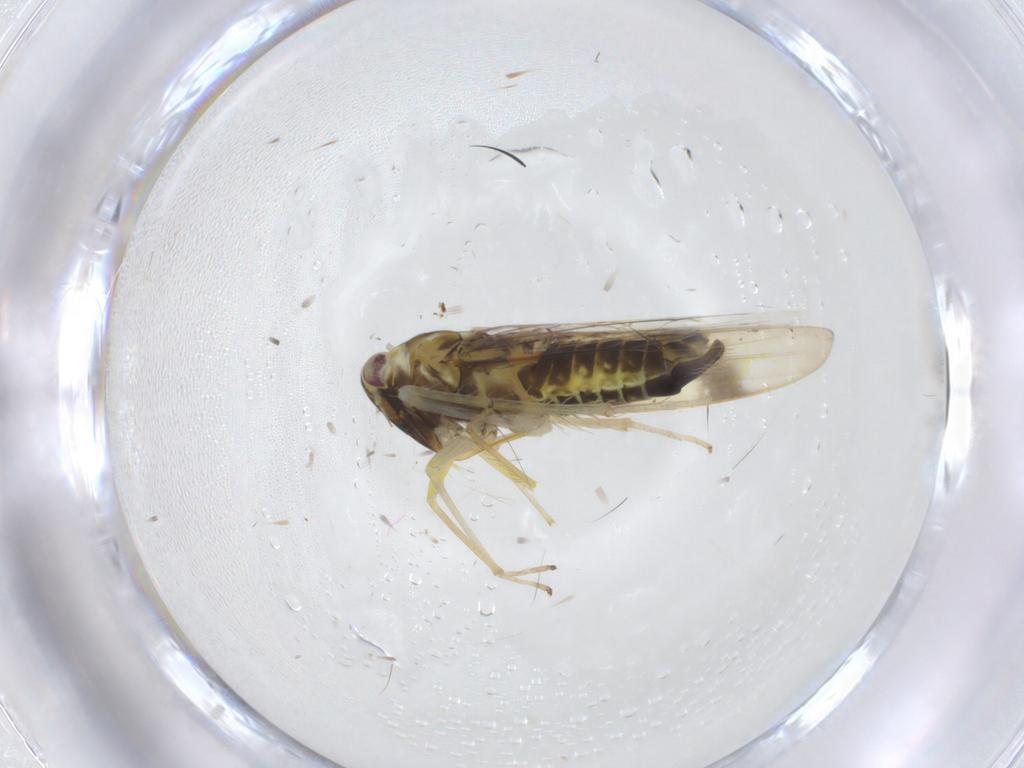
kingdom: Animalia
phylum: Arthropoda
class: Insecta
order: Hemiptera
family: Cicadellidae
